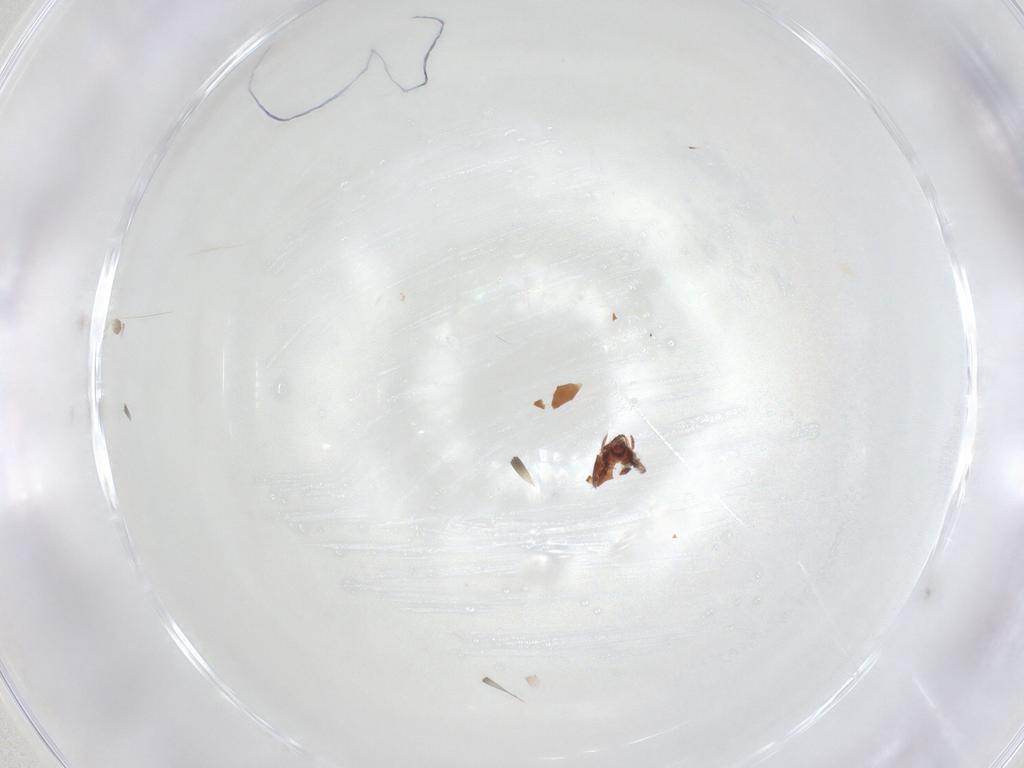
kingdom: Animalia
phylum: Arthropoda
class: Arachnida
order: Sarcoptiformes
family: Humerobatidae
